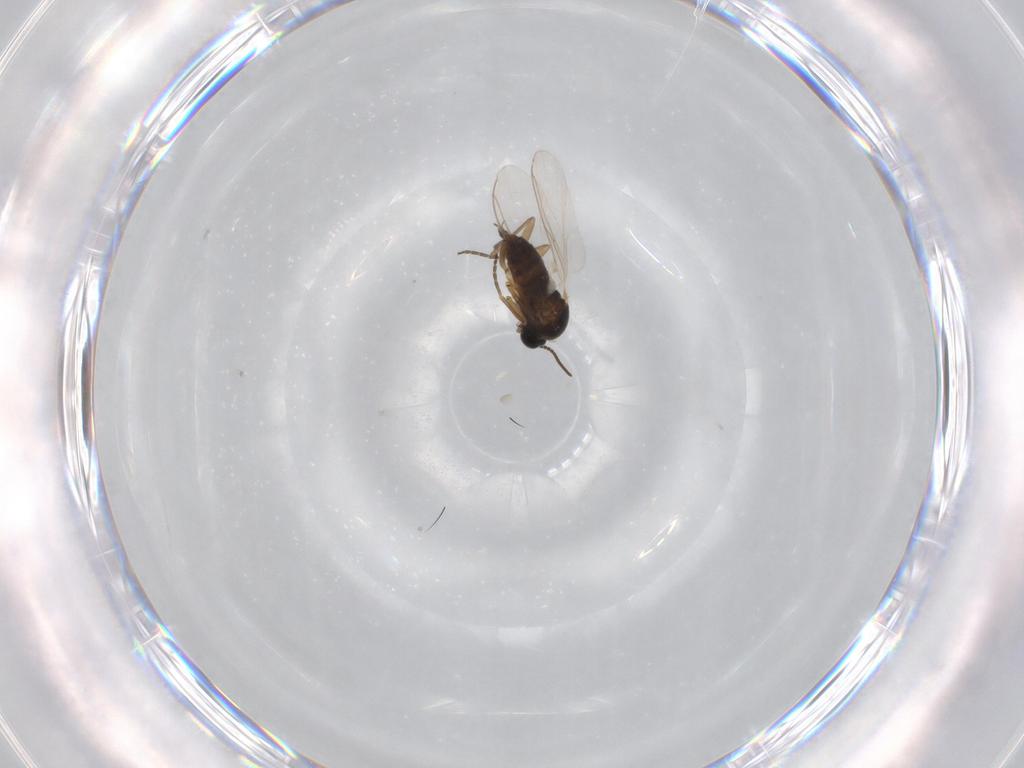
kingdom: Animalia
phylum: Arthropoda
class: Insecta
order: Diptera
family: Sciaridae
